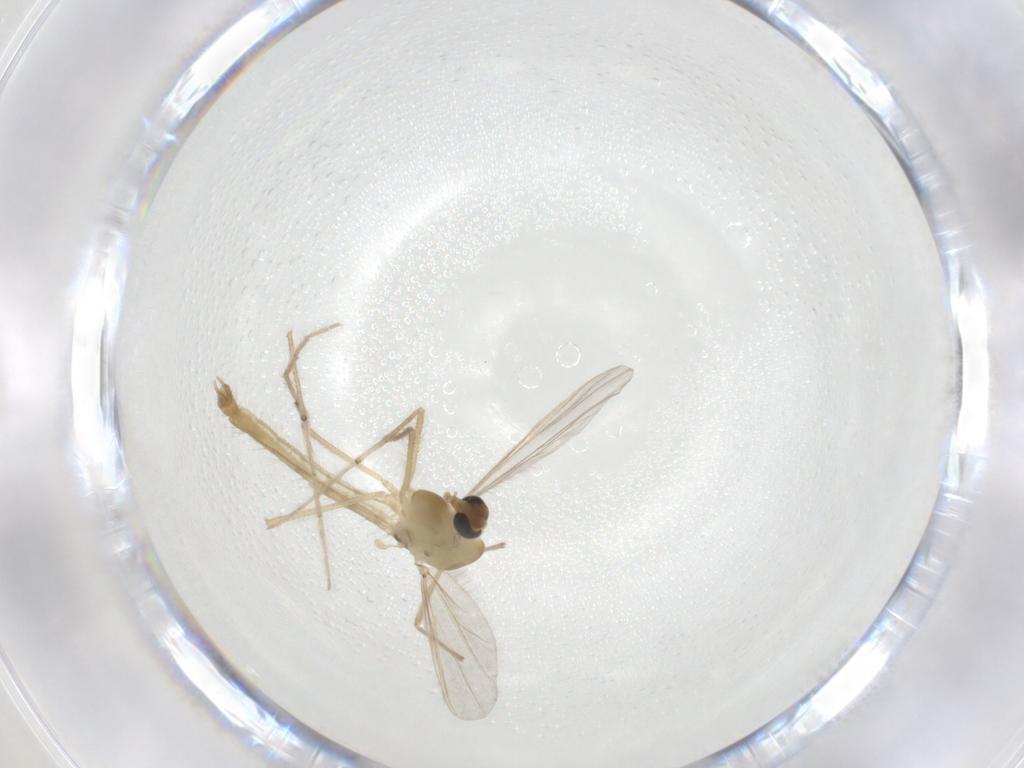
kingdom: Animalia
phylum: Arthropoda
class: Insecta
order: Diptera
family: Chironomidae
